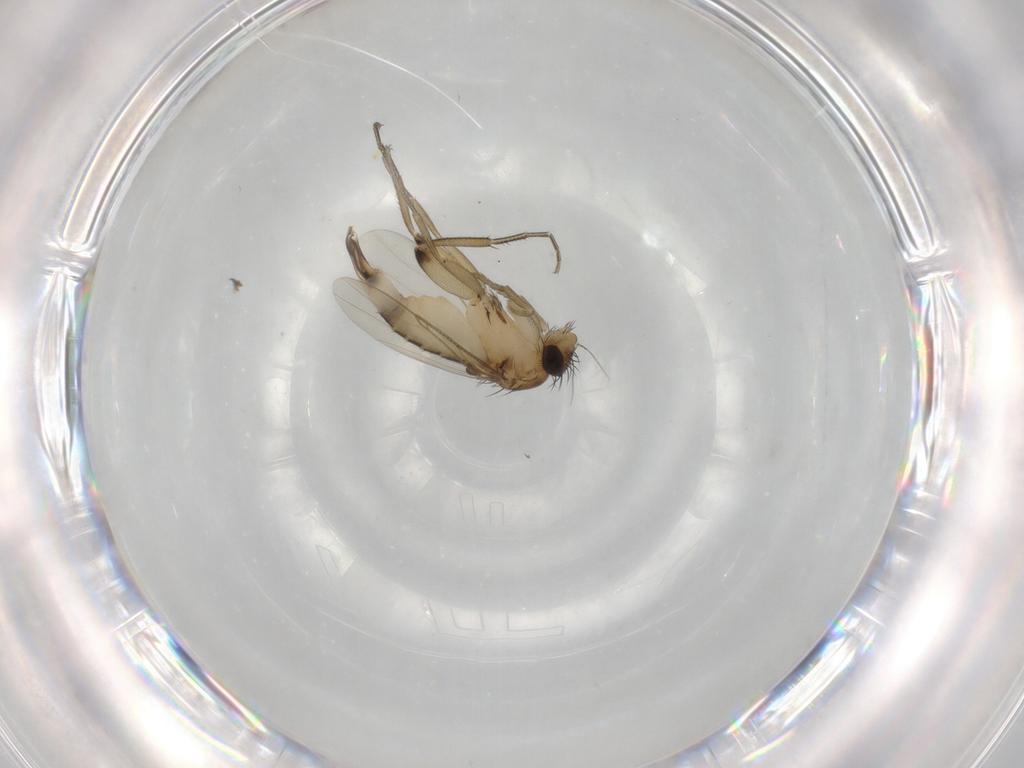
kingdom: Animalia
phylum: Arthropoda
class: Insecta
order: Diptera
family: Phoridae
